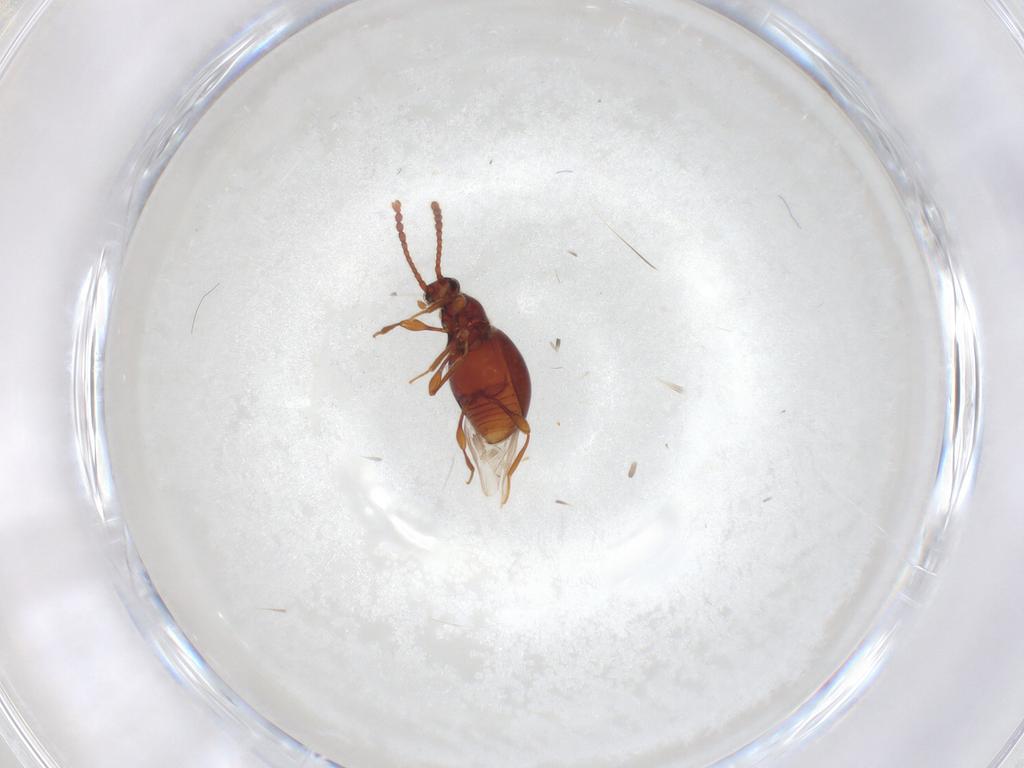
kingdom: Animalia
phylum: Arthropoda
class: Insecta
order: Coleoptera
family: Staphylinidae
